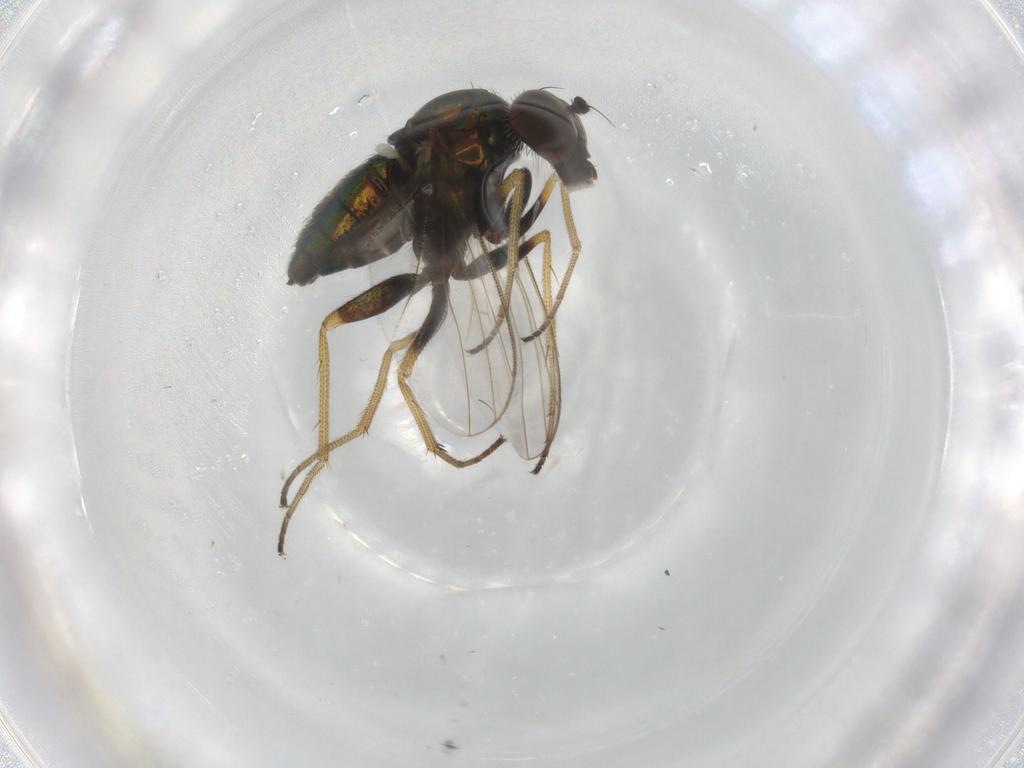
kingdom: Animalia
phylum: Arthropoda
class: Insecta
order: Diptera
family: Dolichopodidae
